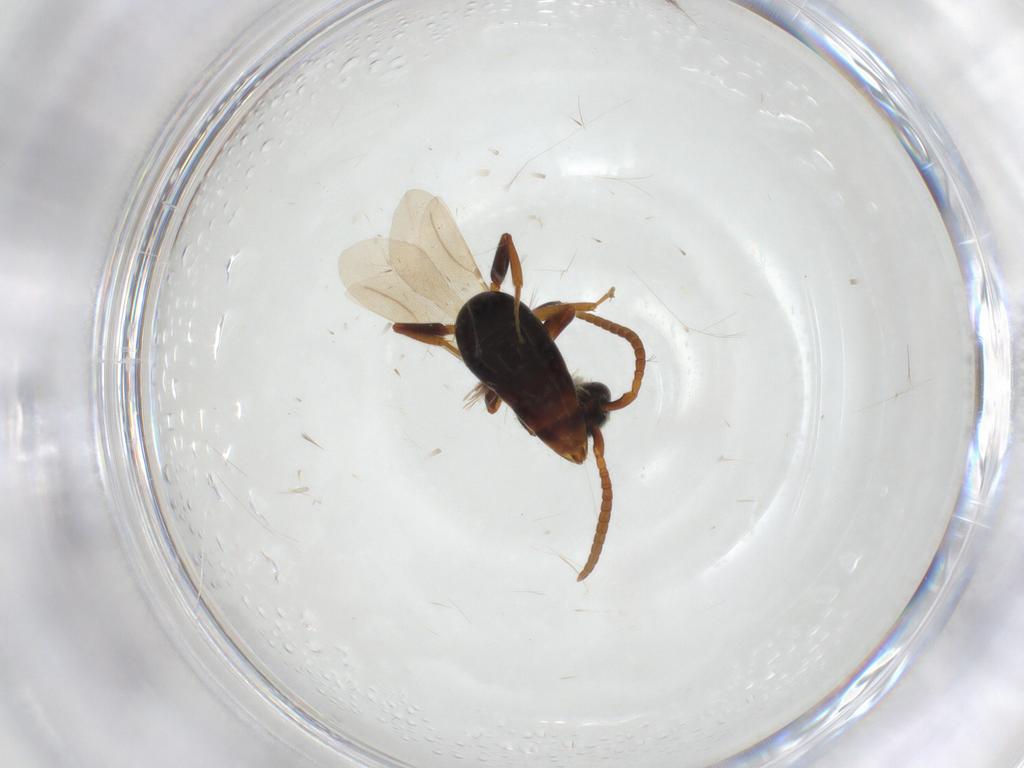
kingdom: Animalia
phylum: Arthropoda
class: Insecta
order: Hymenoptera
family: Bethylidae
